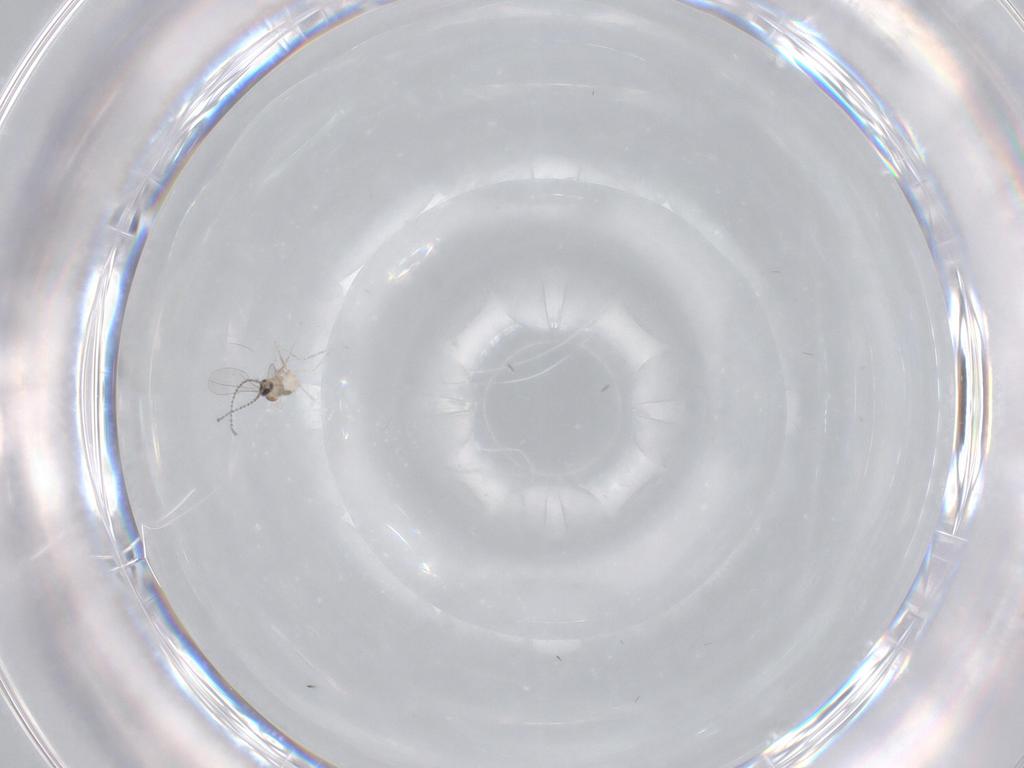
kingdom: Animalia
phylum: Arthropoda
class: Insecta
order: Diptera
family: Cecidomyiidae
